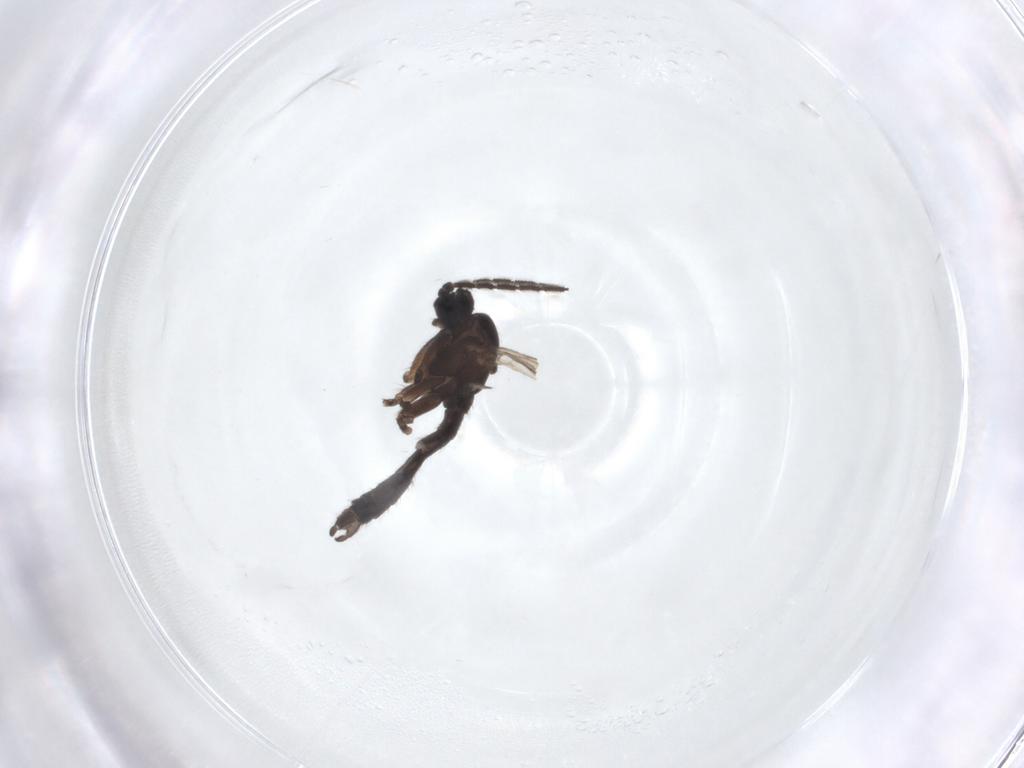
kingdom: Animalia
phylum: Arthropoda
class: Insecta
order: Diptera
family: Sciaridae
